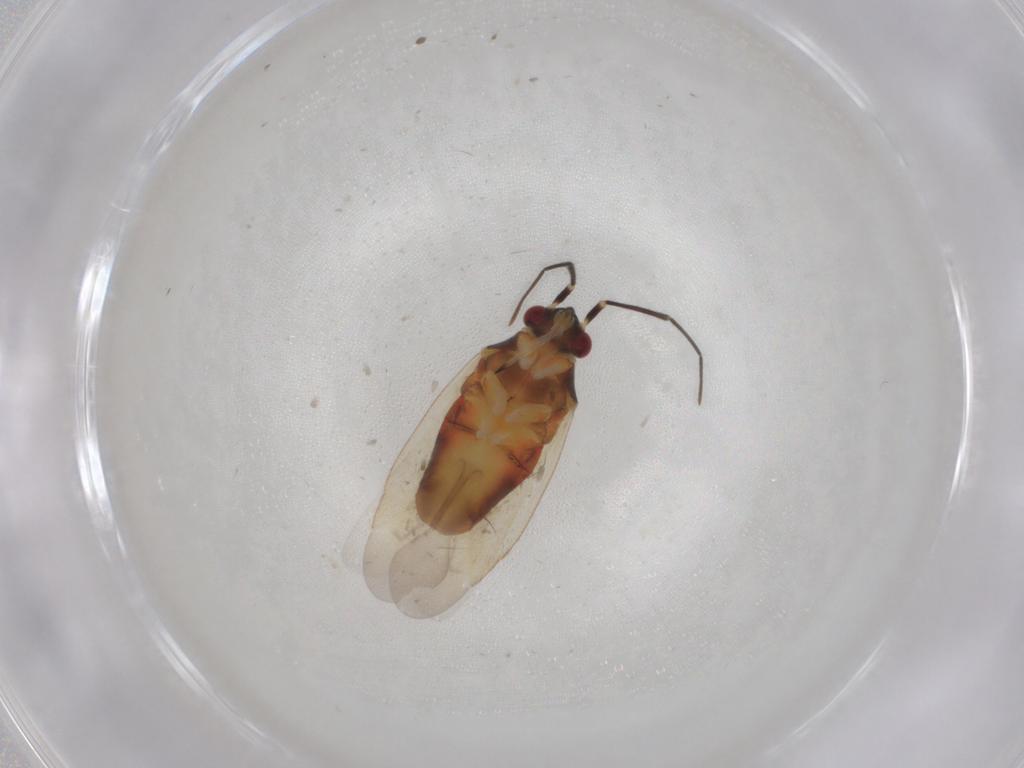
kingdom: Animalia
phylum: Arthropoda
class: Insecta
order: Hemiptera
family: Miridae
